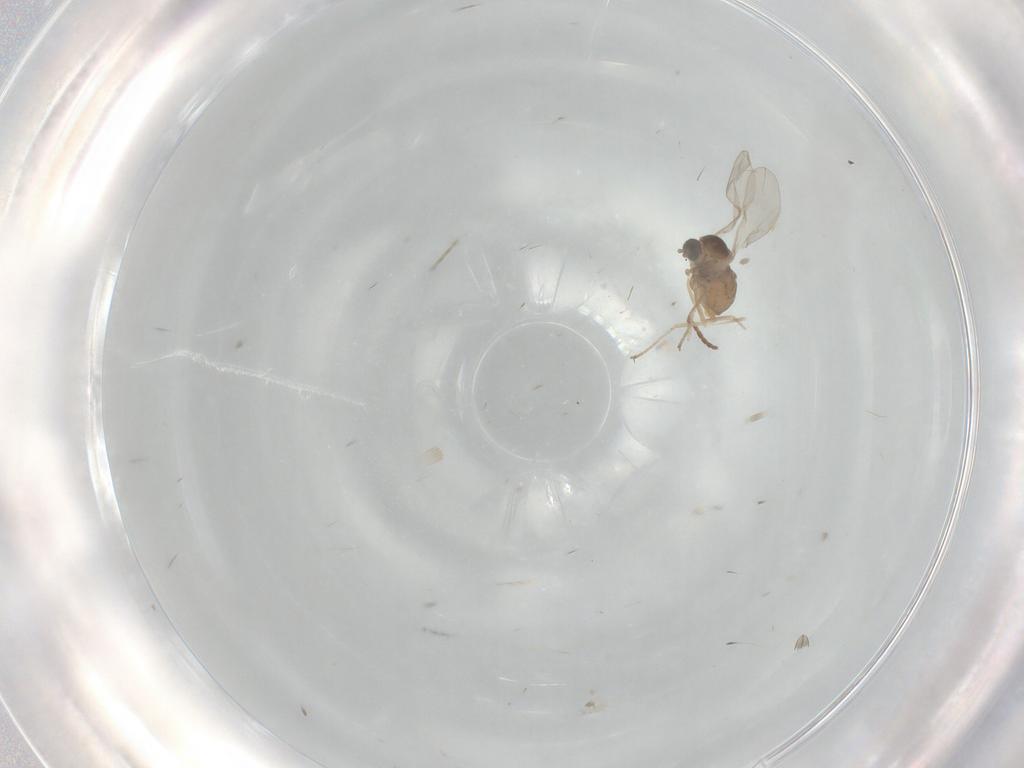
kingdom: Animalia
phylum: Arthropoda
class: Insecta
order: Diptera
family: Cecidomyiidae
